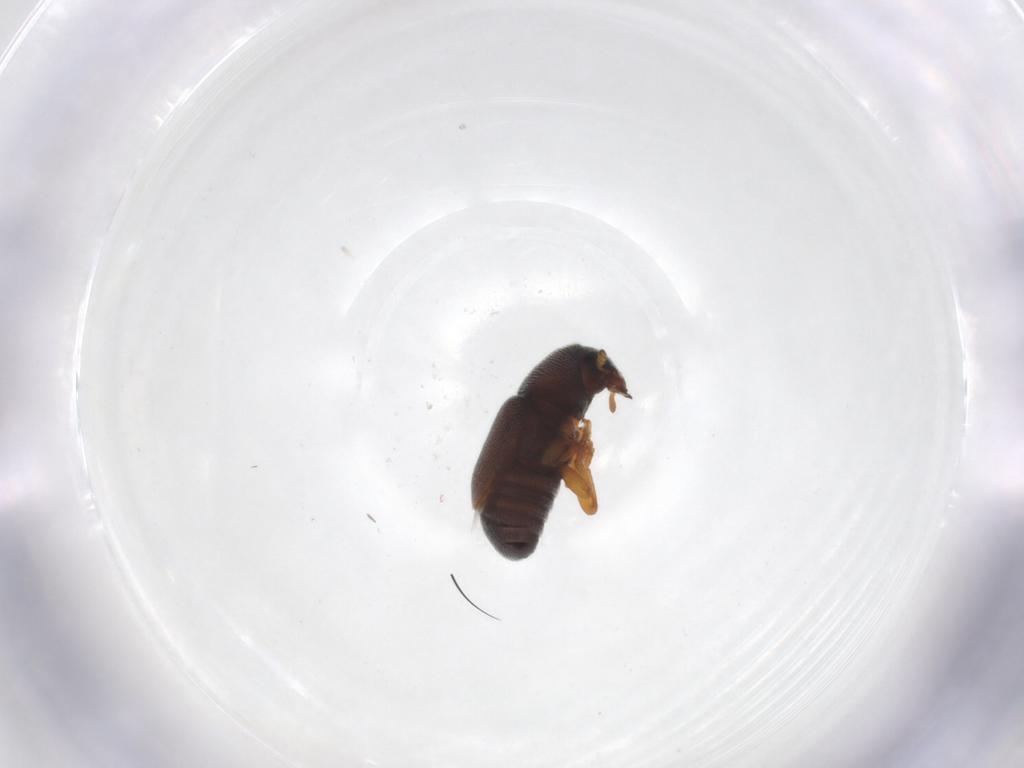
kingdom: Animalia
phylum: Arthropoda
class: Insecta
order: Coleoptera
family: Anthribidae
